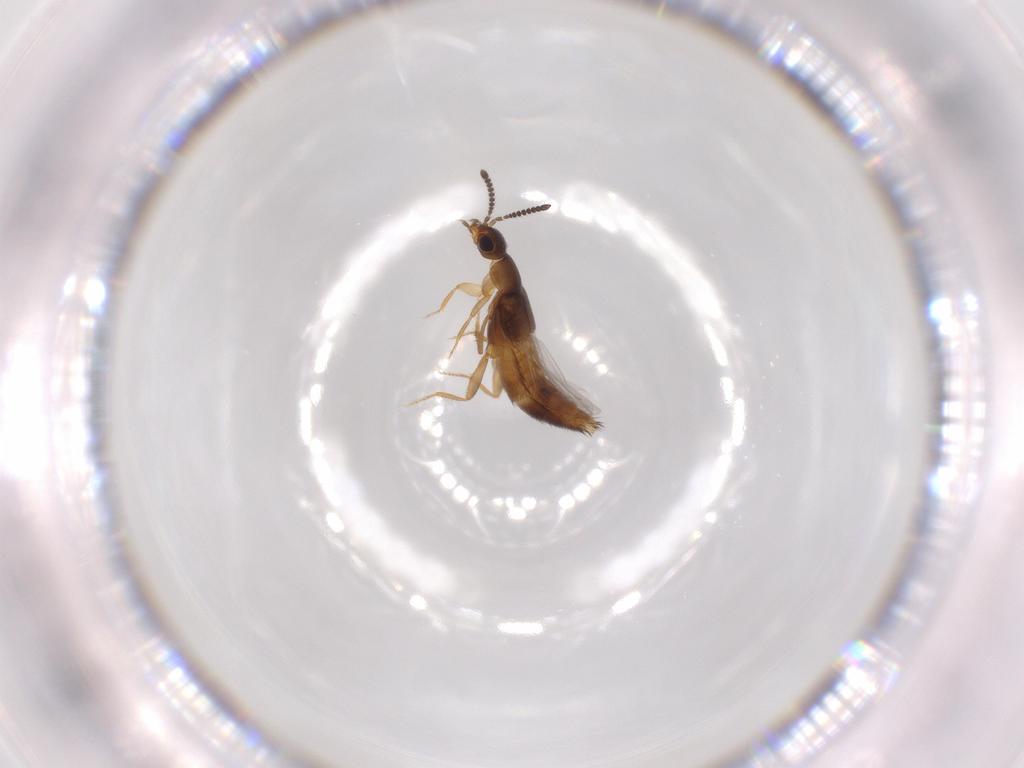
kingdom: Animalia
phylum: Arthropoda
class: Insecta
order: Coleoptera
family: Staphylinidae
